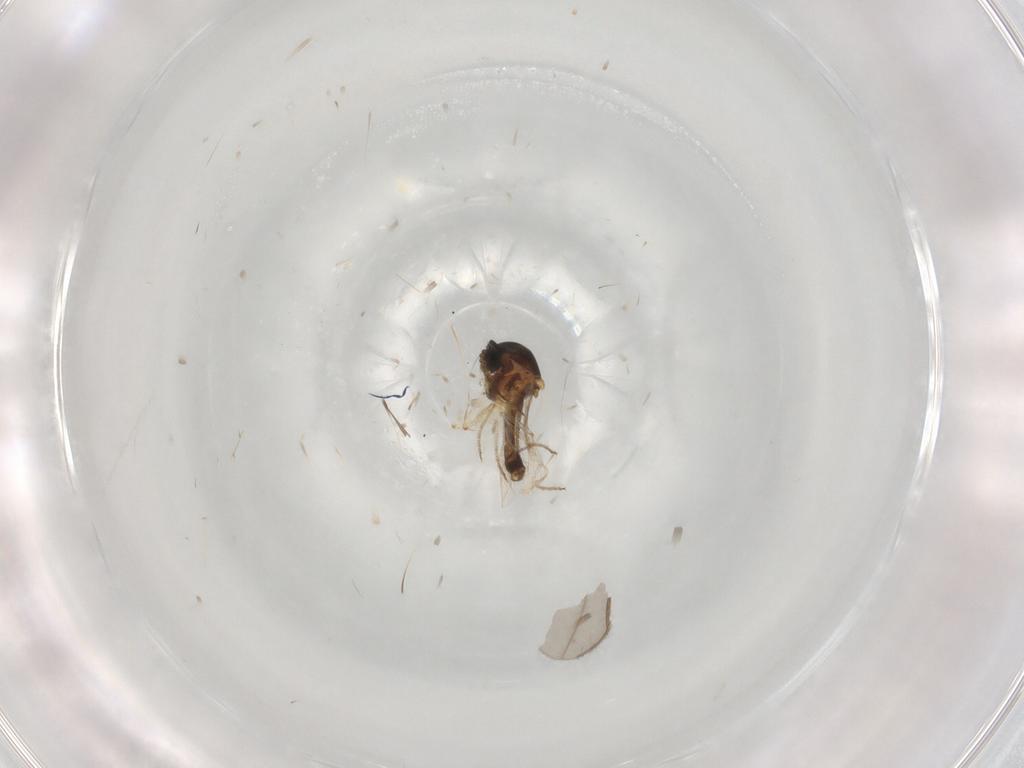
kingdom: Animalia
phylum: Arthropoda
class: Insecta
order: Diptera
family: Ceratopogonidae
